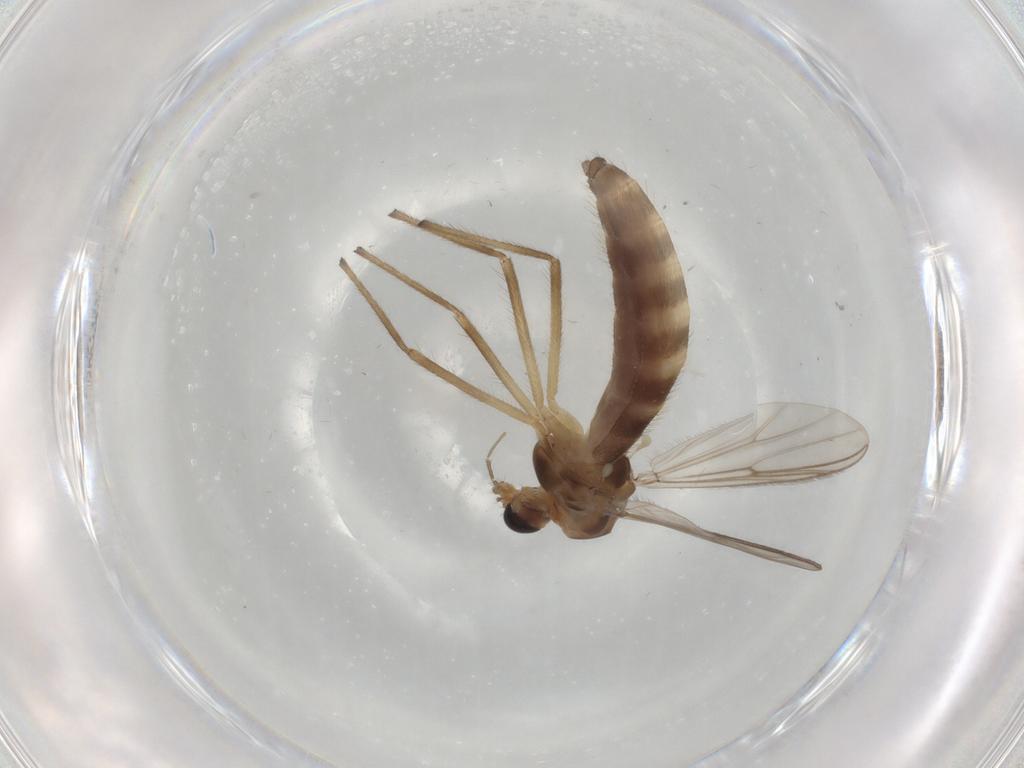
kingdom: Animalia
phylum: Arthropoda
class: Insecta
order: Diptera
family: Chironomidae
